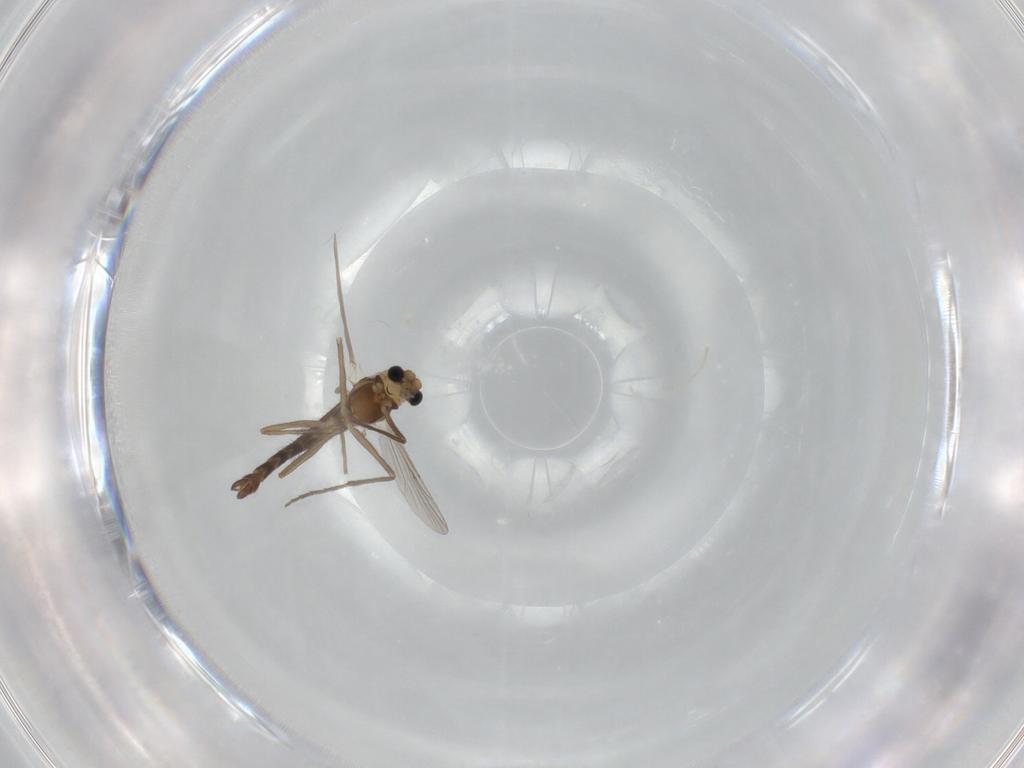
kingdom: Animalia
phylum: Arthropoda
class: Insecta
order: Diptera
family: Chironomidae
